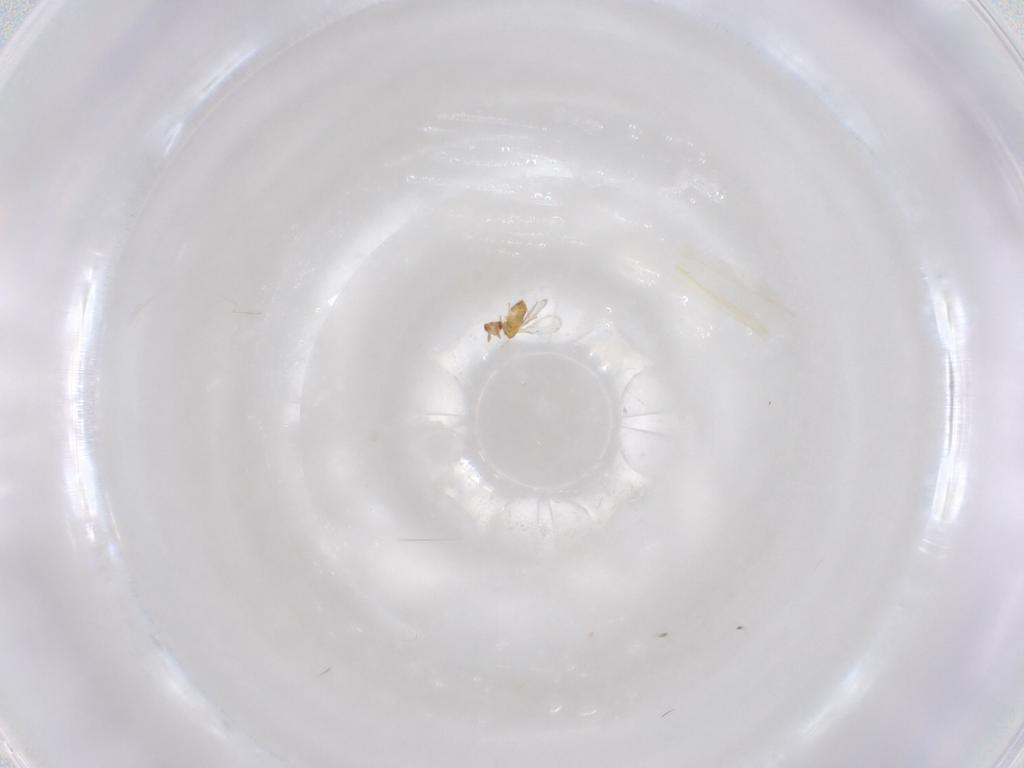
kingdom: Animalia
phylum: Arthropoda
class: Insecta
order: Hymenoptera
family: Trichogrammatidae
